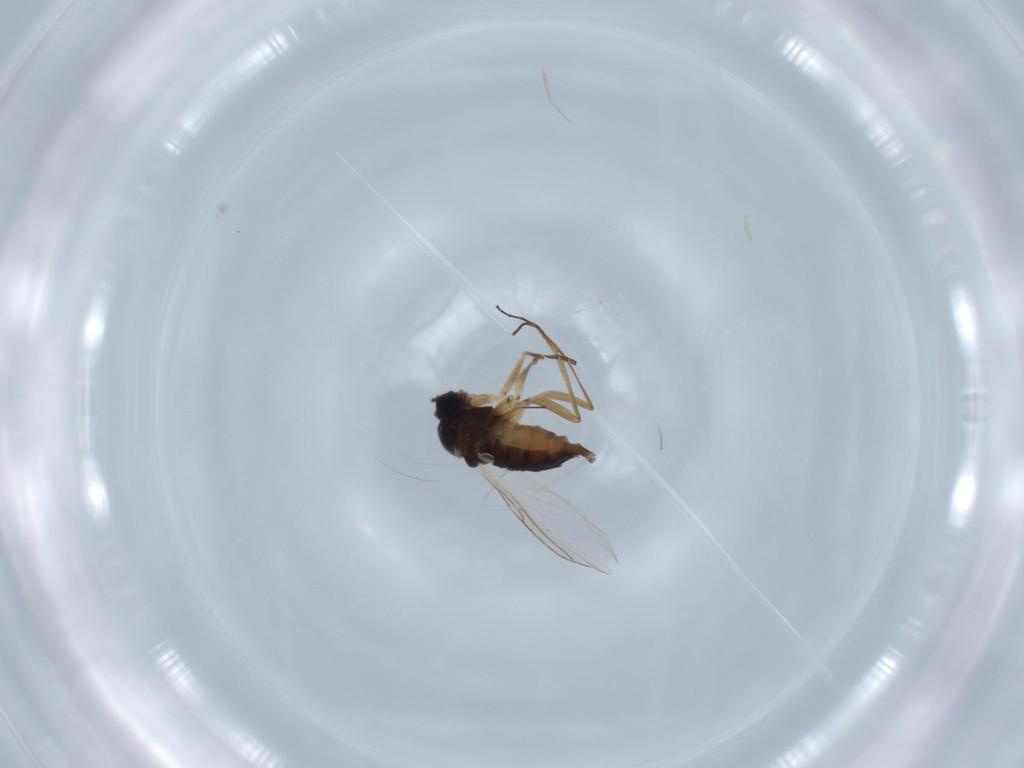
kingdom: Animalia
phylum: Arthropoda
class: Insecta
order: Diptera
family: Sciaridae
